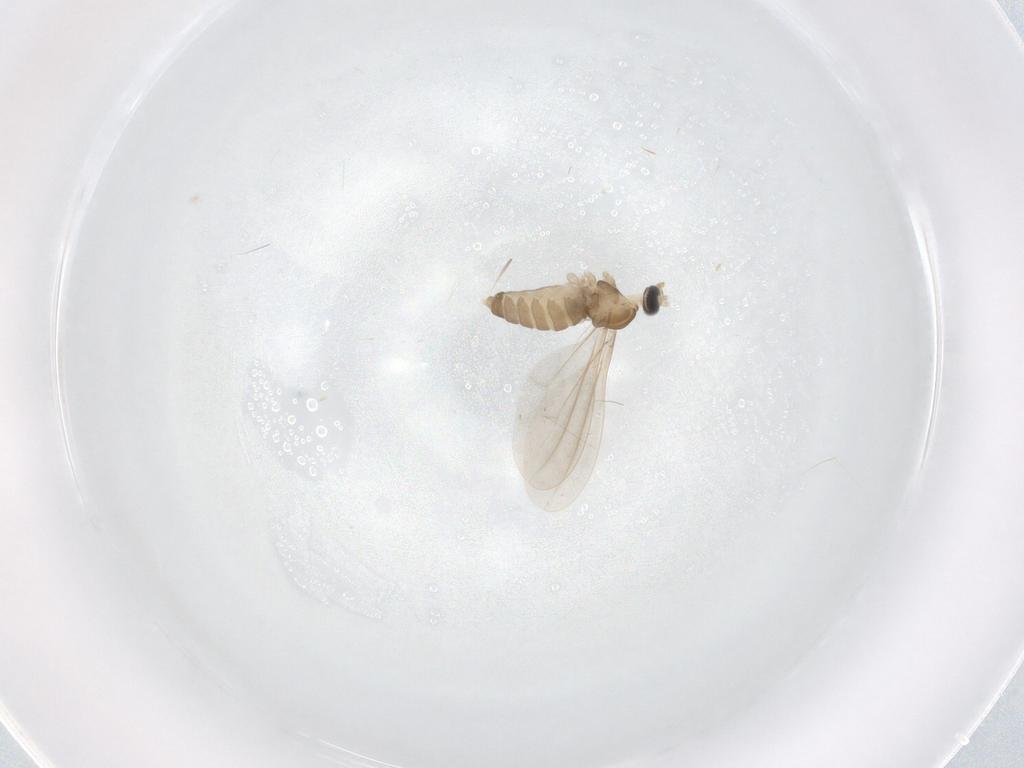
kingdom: Animalia
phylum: Arthropoda
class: Insecta
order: Diptera
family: Cecidomyiidae
